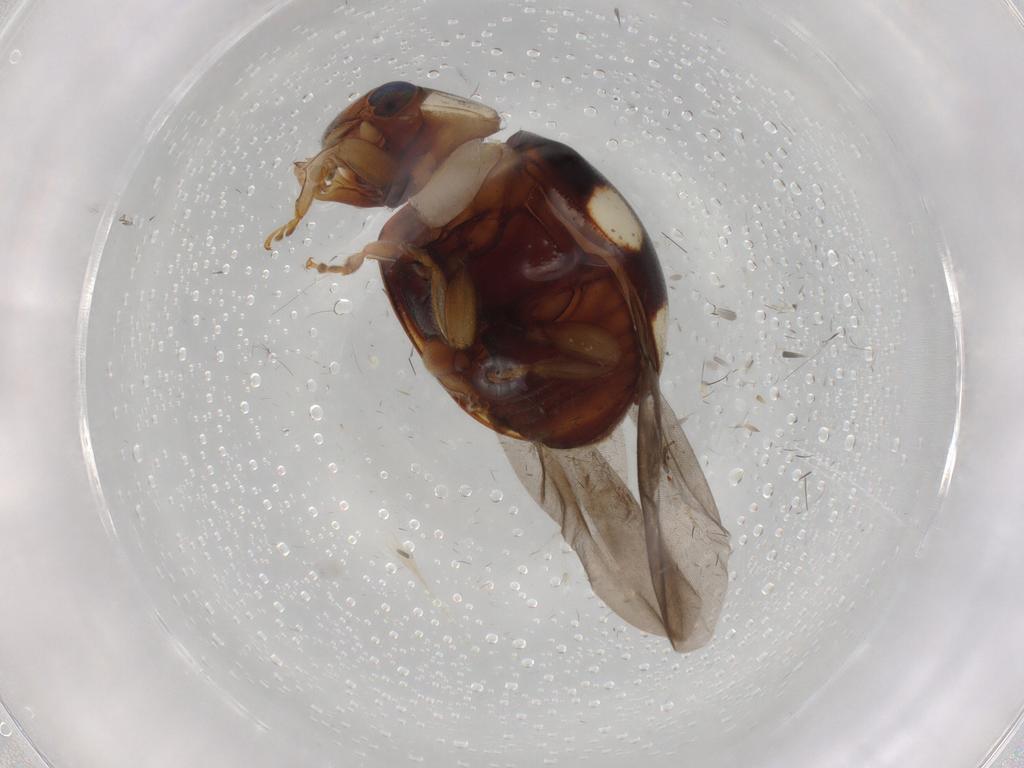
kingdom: Animalia
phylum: Arthropoda
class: Insecta
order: Coleoptera
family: Coccinellidae
